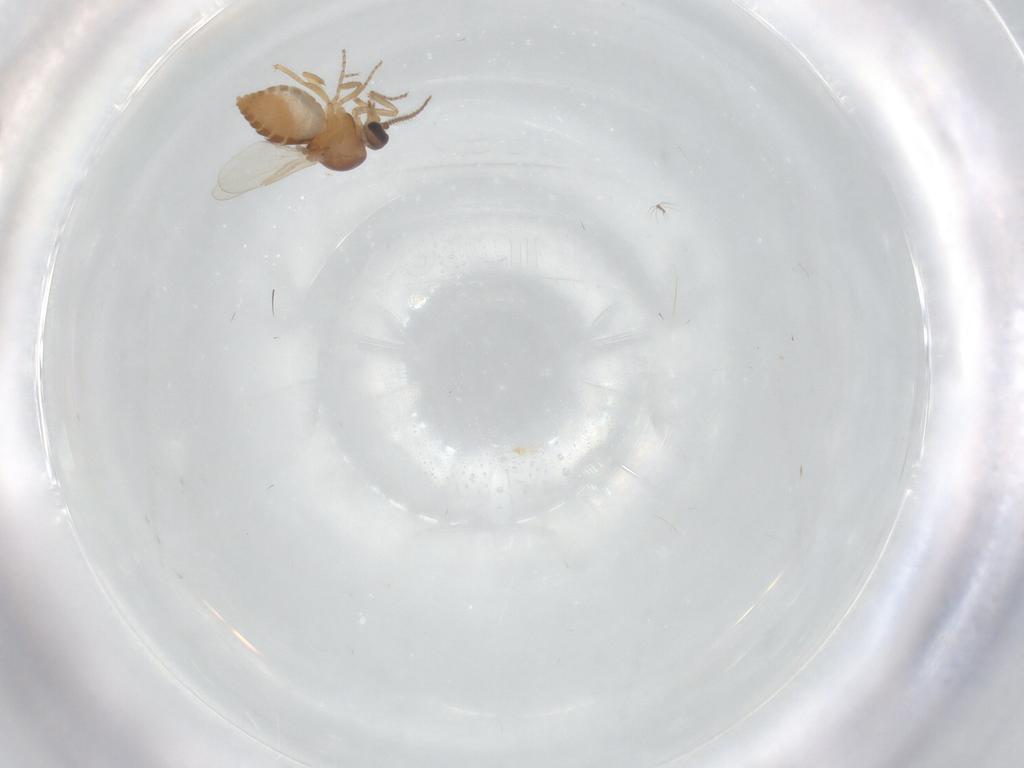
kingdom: Animalia
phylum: Arthropoda
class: Insecta
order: Diptera
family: Ceratopogonidae
